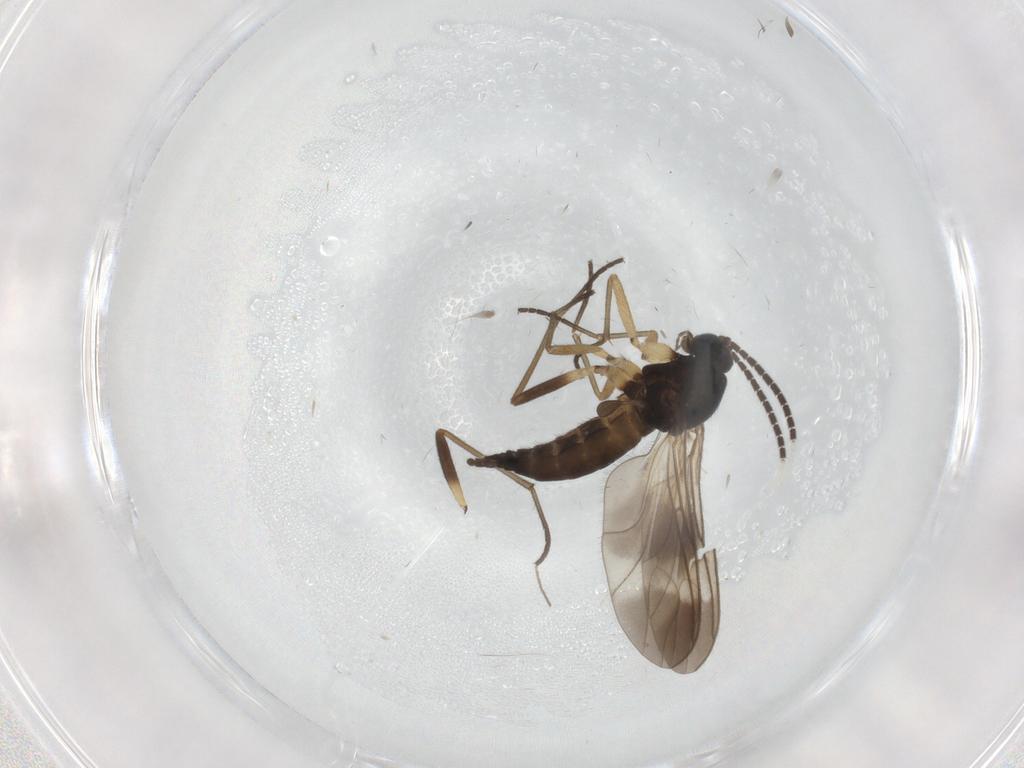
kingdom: Animalia
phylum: Arthropoda
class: Insecta
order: Diptera
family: Sciaridae
